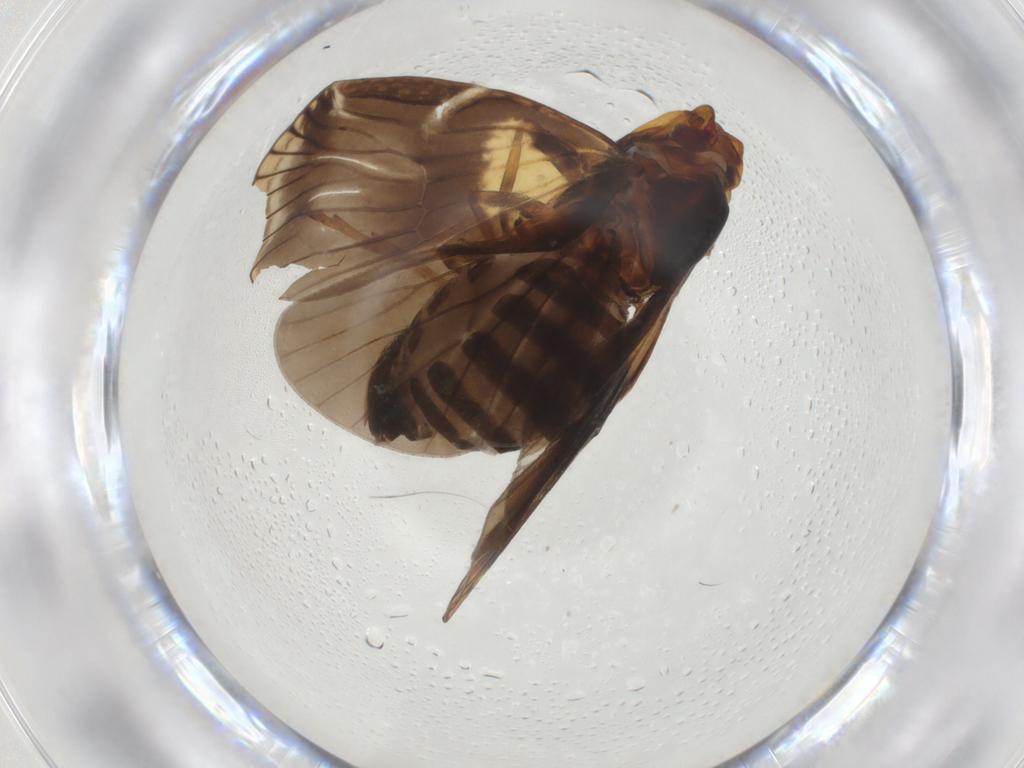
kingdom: Animalia
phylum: Arthropoda
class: Insecta
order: Hemiptera
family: Cixiidae
